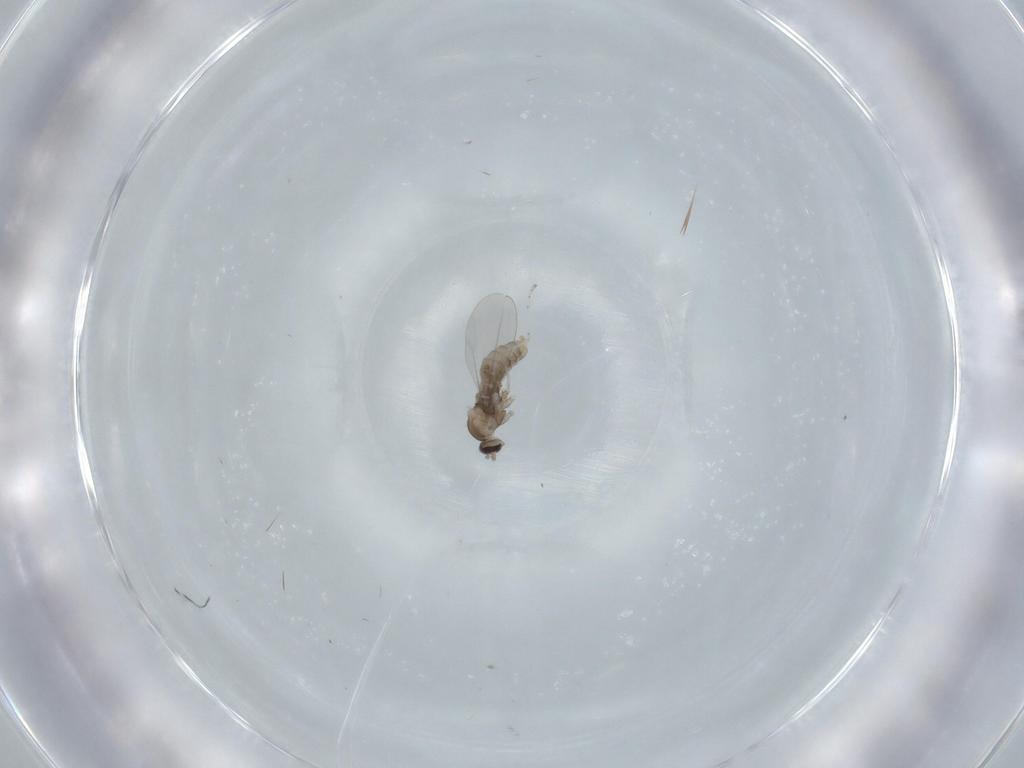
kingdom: Animalia
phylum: Arthropoda
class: Insecta
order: Diptera
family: Cecidomyiidae
